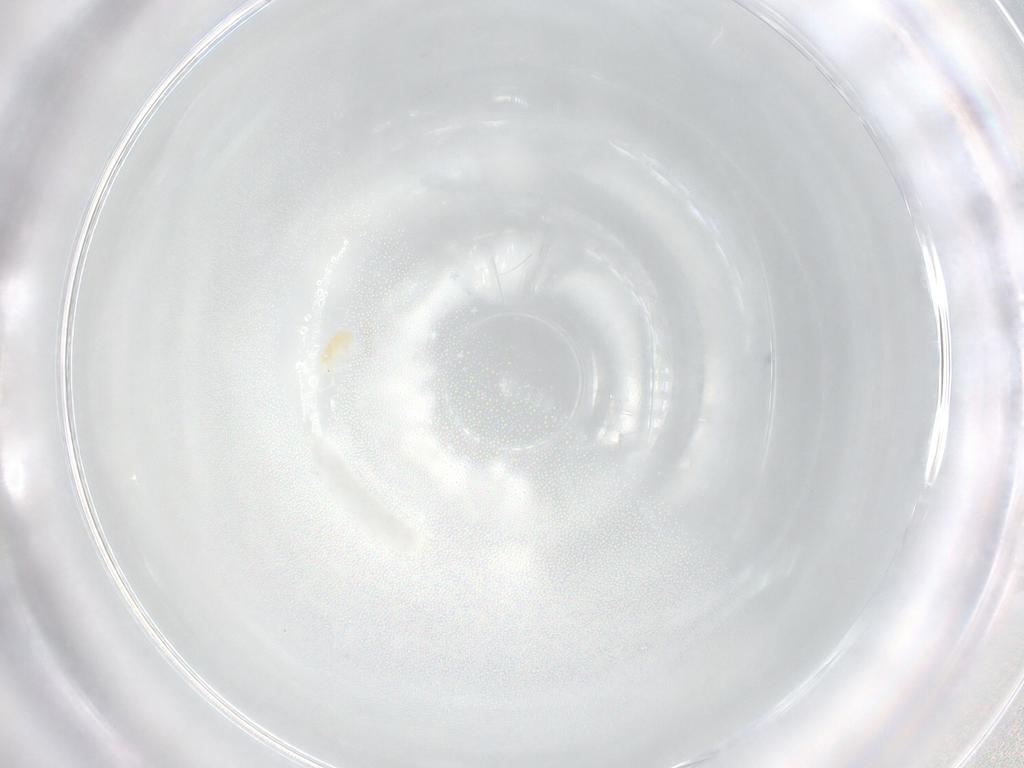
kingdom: Animalia
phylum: Arthropoda
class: Arachnida
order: Trombidiformes
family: Eupodidae
